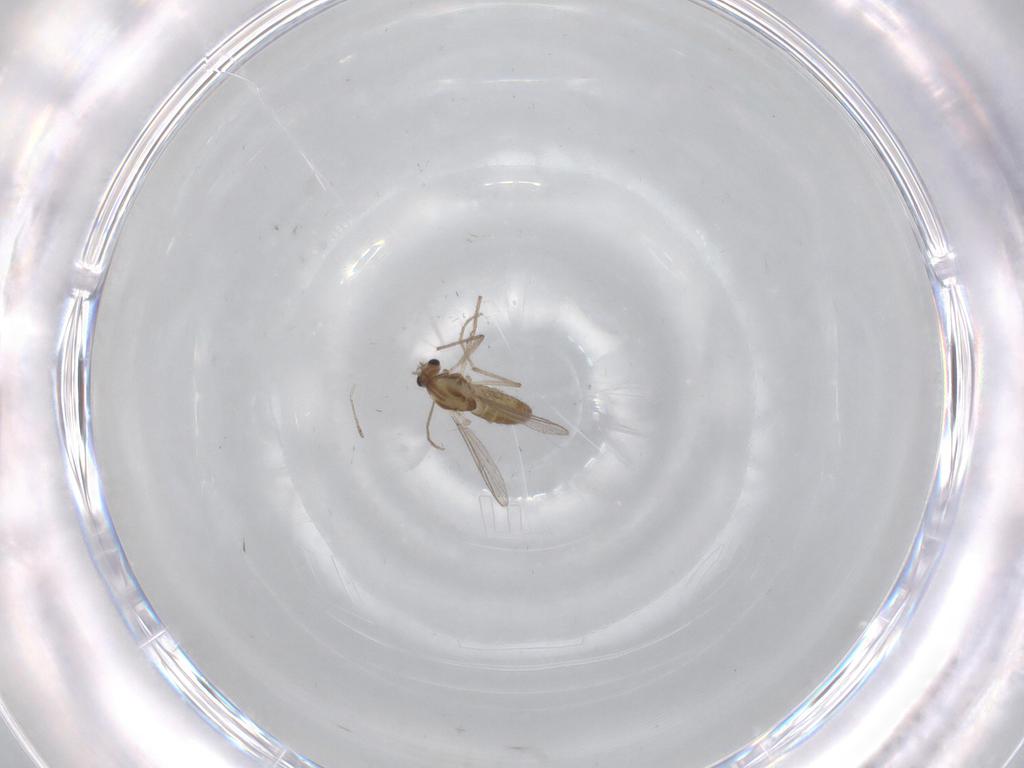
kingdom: Animalia
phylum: Arthropoda
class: Insecta
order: Diptera
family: Chironomidae
